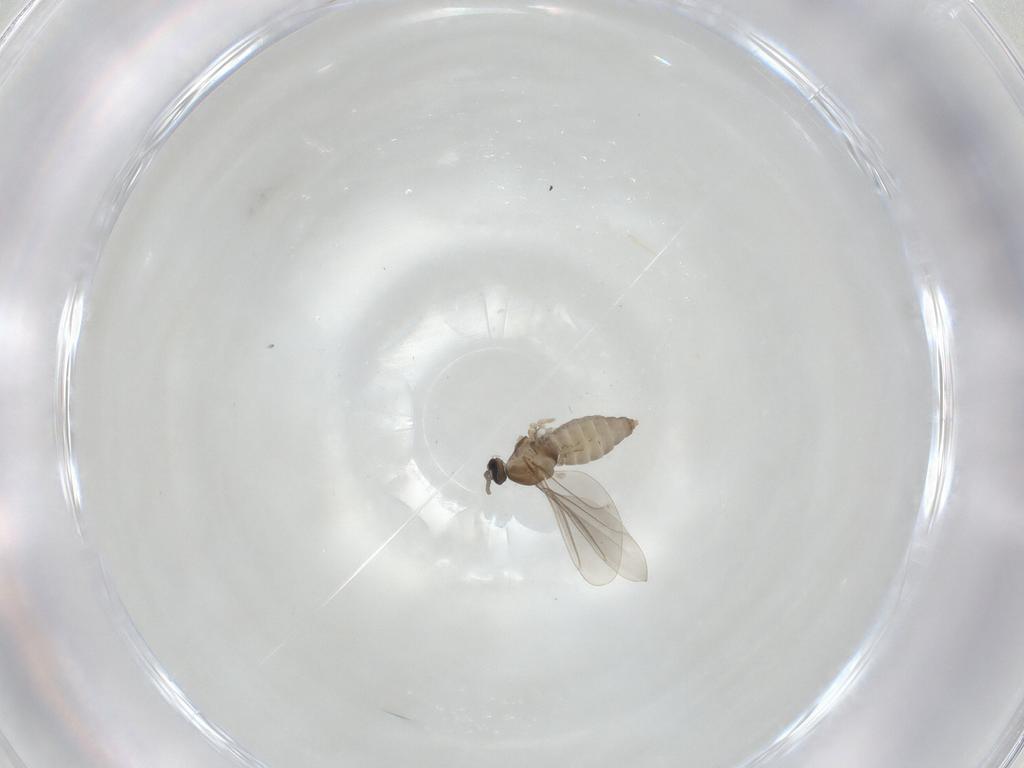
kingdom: Animalia
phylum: Arthropoda
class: Insecta
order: Diptera
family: Cecidomyiidae
